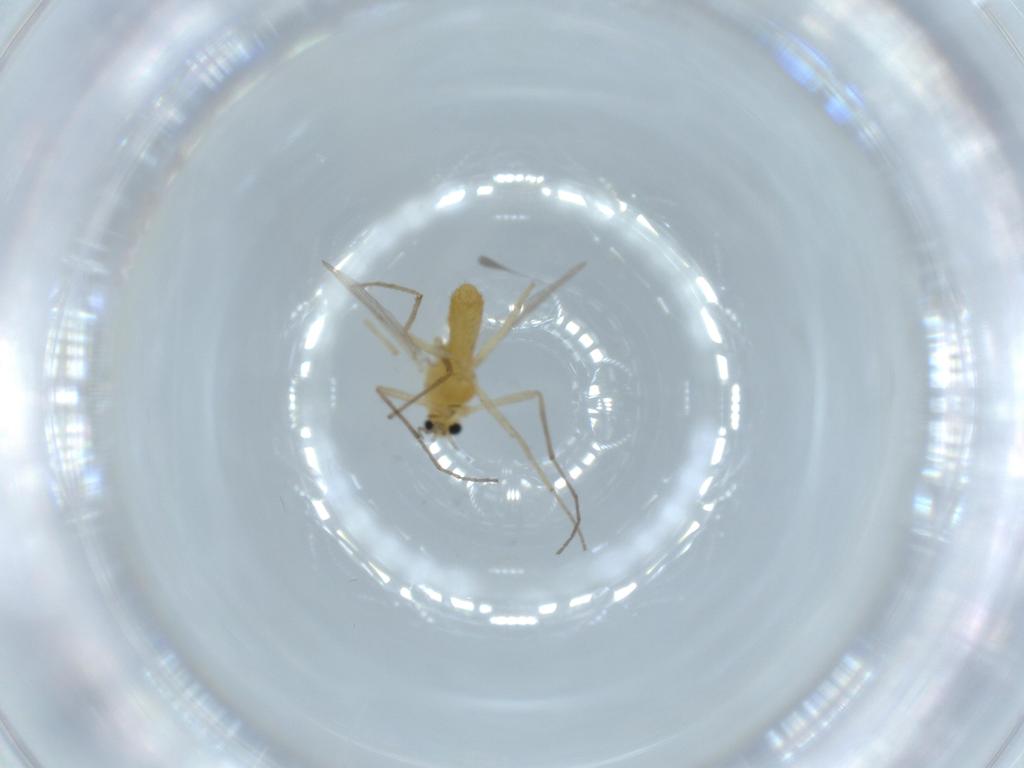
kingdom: Animalia
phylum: Arthropoda
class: Insecta
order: Diptera
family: Chironomidae
